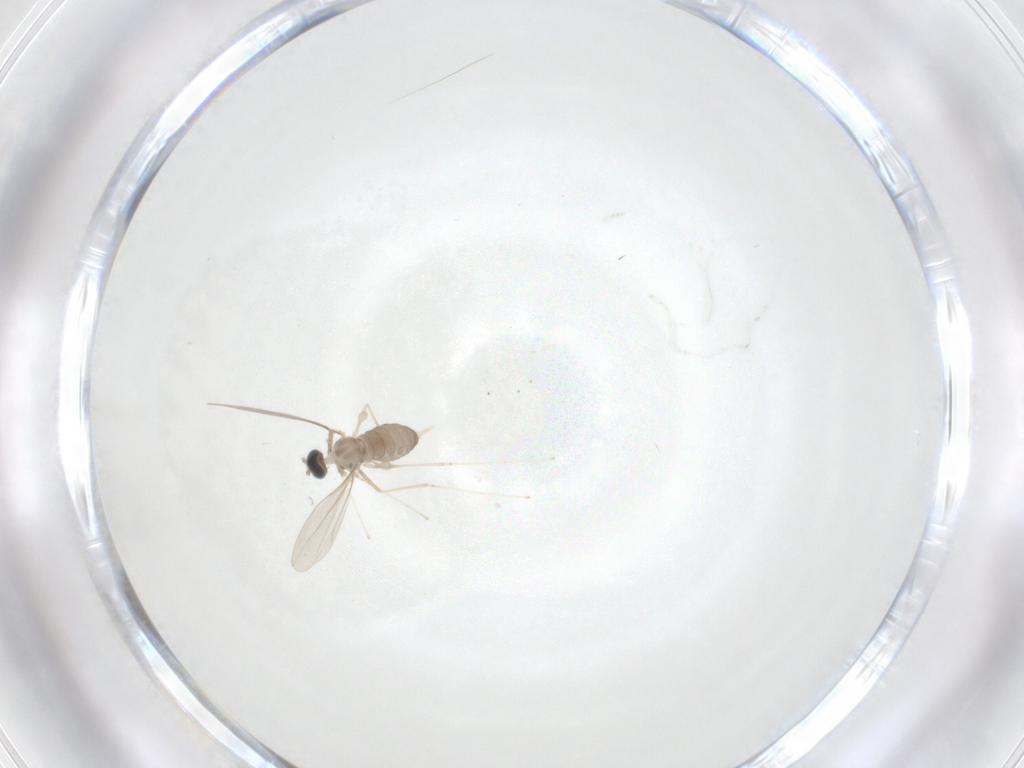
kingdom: Animalia
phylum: Arthropoda
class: Insecta
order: Diptera
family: Cecidomyiidae
